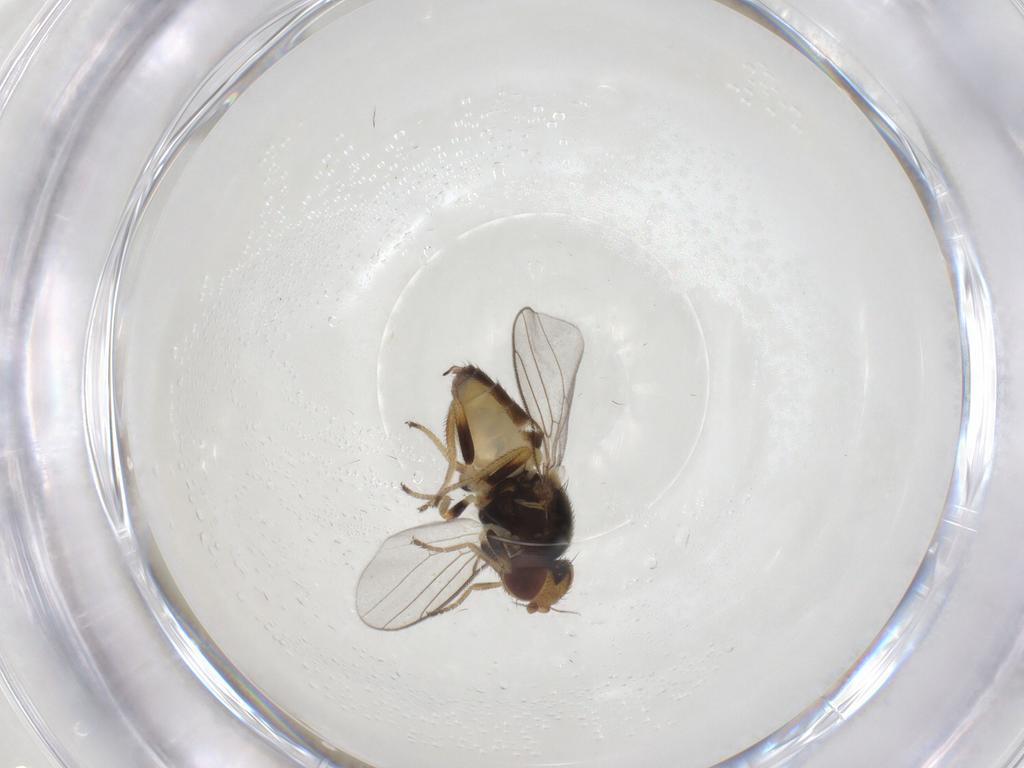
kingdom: Animalia
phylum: Arthropoda
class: Insecta
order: Diptera
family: Chloropidae
